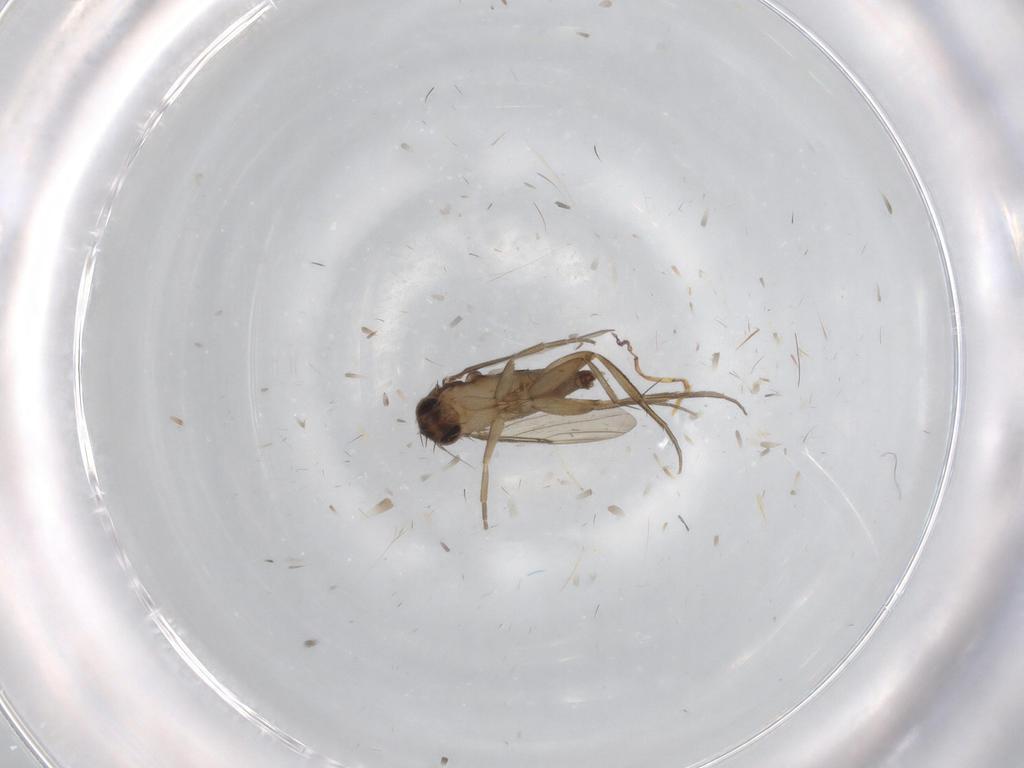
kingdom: Animalia
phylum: Arthropoda
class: Insecta
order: Diptera
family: Phoridae
